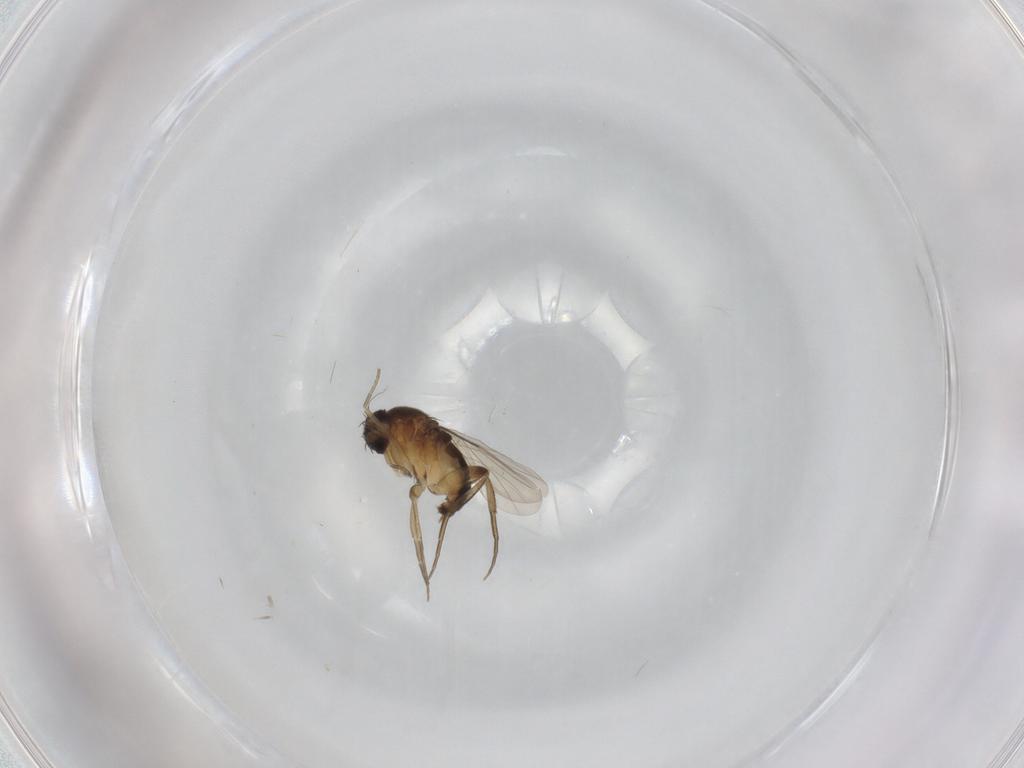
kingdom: Animalia
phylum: Arthropoda
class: Insecta
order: Diptera
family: Phoridae
